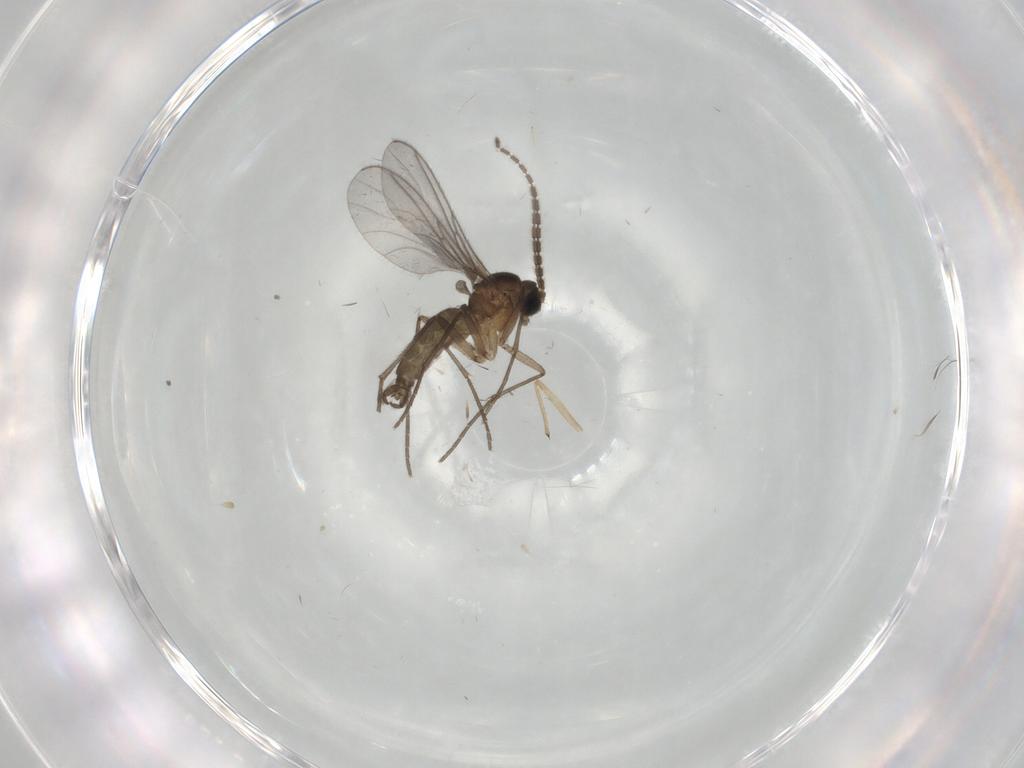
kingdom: Animalia
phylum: Arthropoda
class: Insecta
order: Diptera
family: Chironomidae
